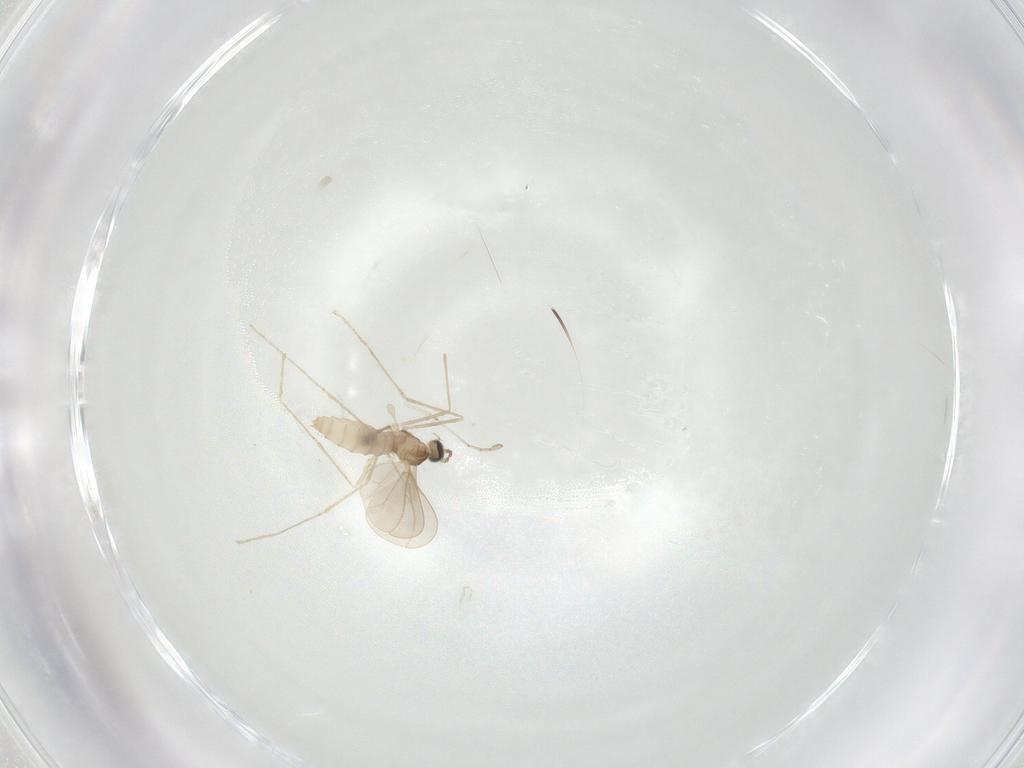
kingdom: Animalia
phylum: Arthropoda
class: Insecta
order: Diptera
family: Cecidomyiidae
